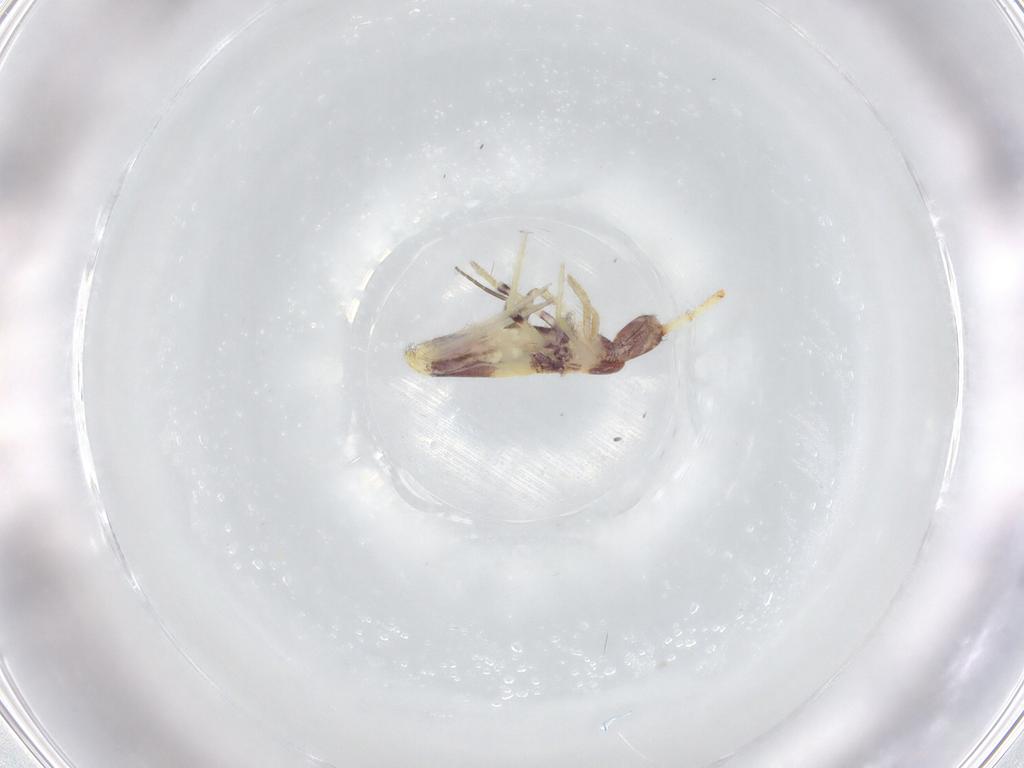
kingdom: Animalia
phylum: Arthropoda
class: Collembola
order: Entomobryomorpha
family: Entomobryidae
